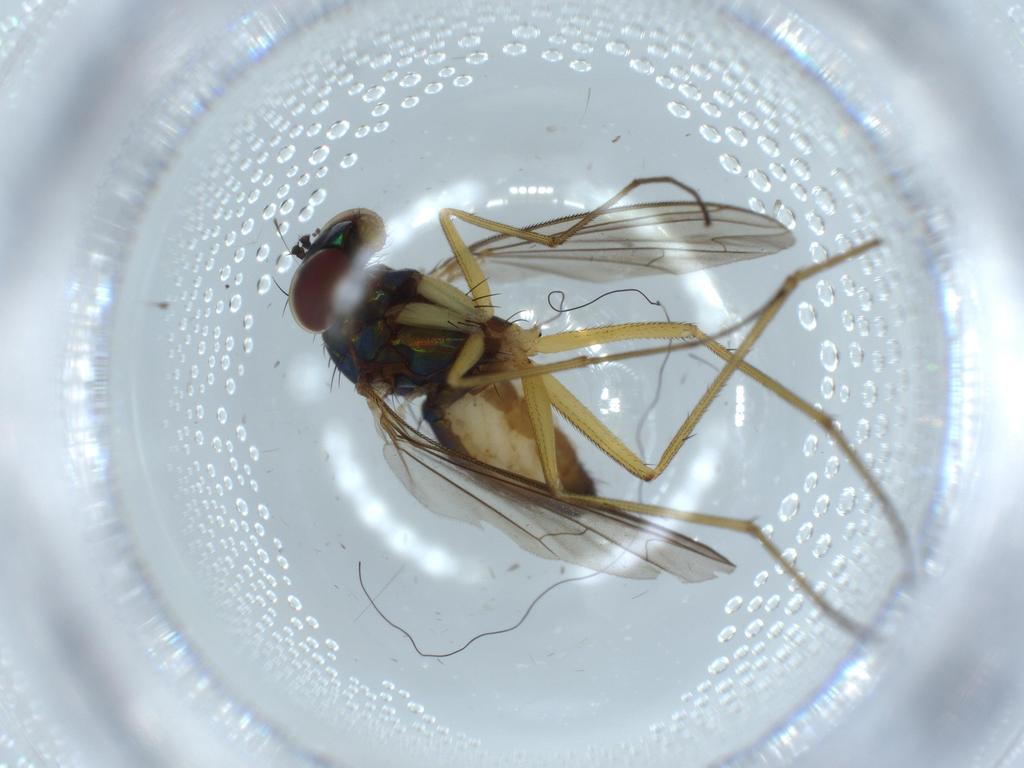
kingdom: Animalia
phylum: Arthropoda
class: Insecta
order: Diptera
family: Dolichopodidae
